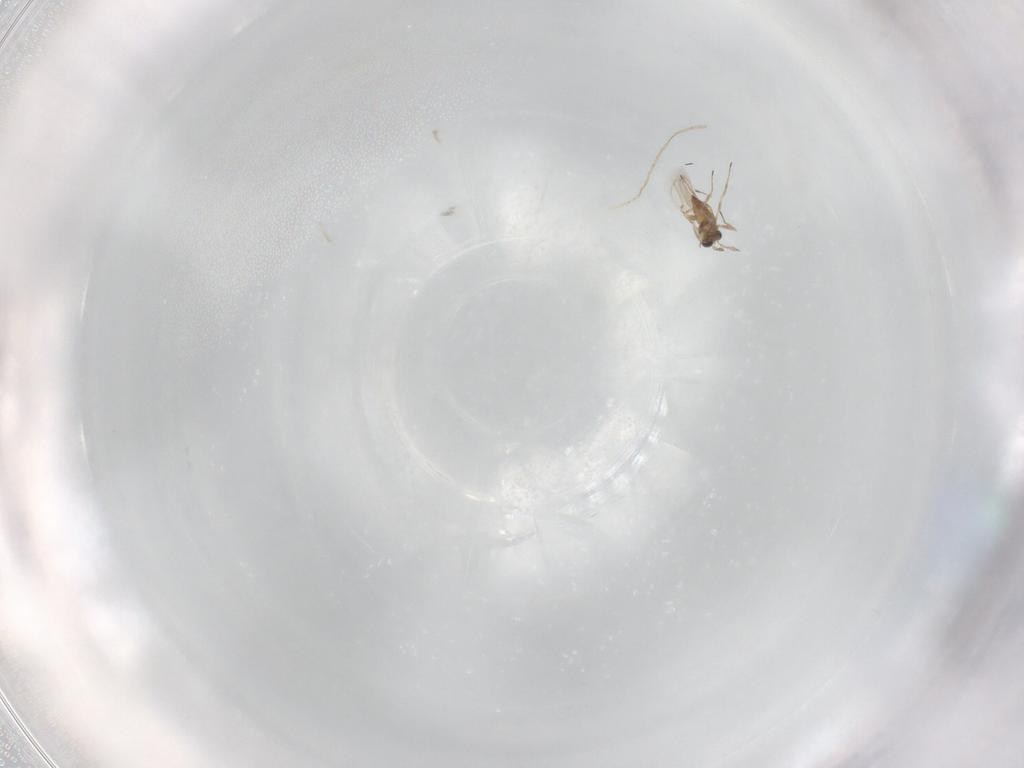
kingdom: Animalia
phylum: Arthropoda
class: Insecta
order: Hymenoptera
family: Trichogrammatidae
